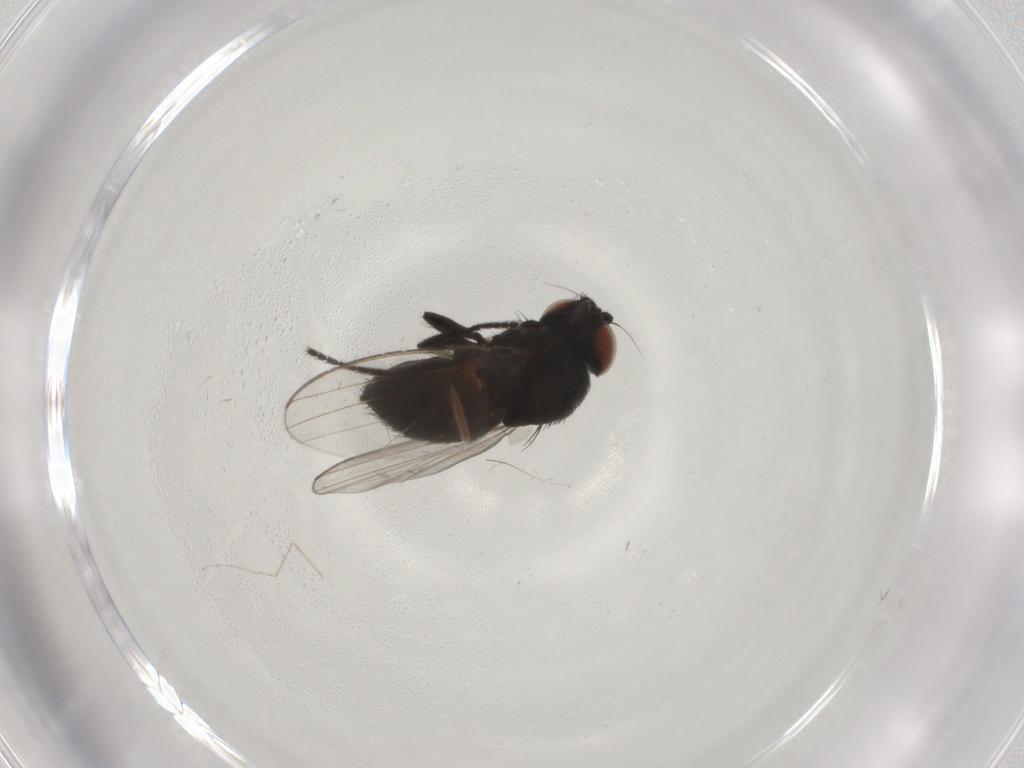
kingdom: Animalia
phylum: Arthropoda
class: Insecta
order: Diptera
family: Milichiidae
